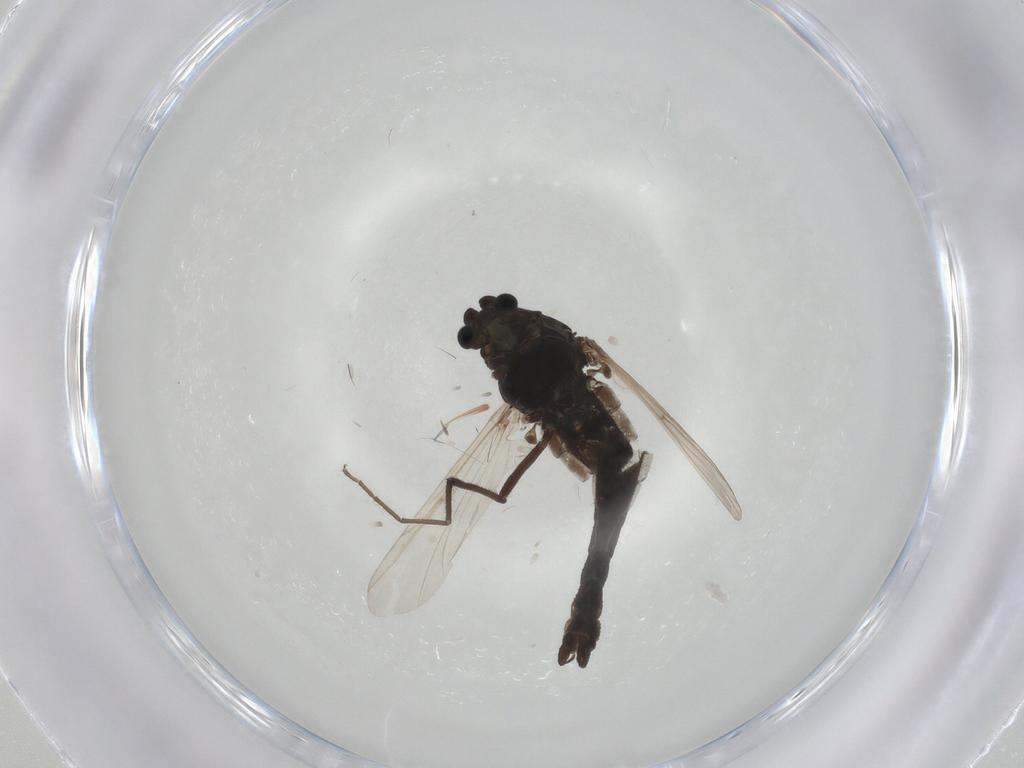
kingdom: Animalia
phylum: Arthropoda
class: Insecta
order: Diptera
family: Chironomidae
